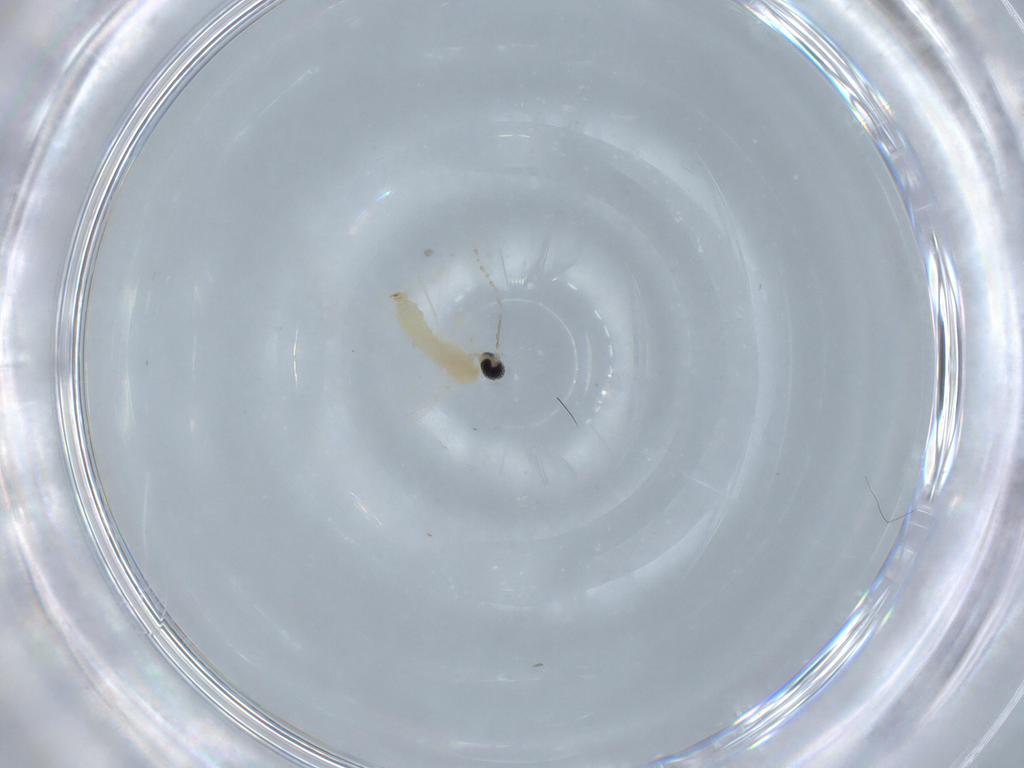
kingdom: Animalia
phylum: Arthropoda
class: Insecta
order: Diptera
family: Cecidomyiidae
